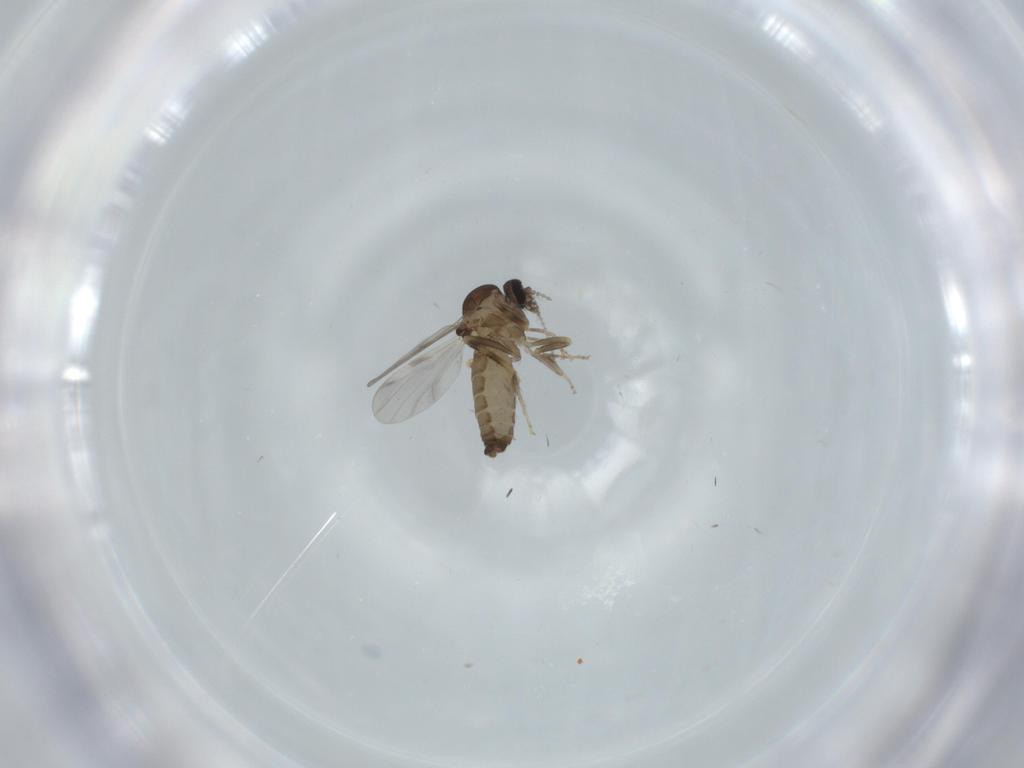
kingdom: Animalia
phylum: Arthropoda
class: Insecta
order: Diptera
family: Ceratopogonidae
